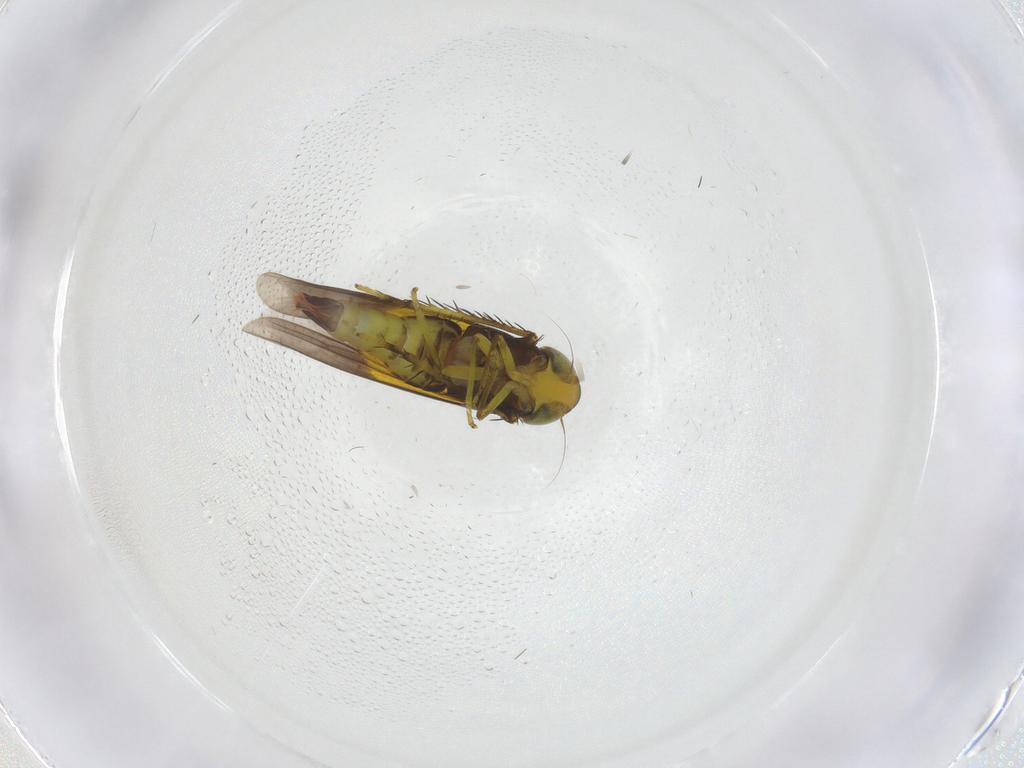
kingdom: Animalia
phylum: Arthropoda
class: Insecta
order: Hemiptera
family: Cicadellidae
